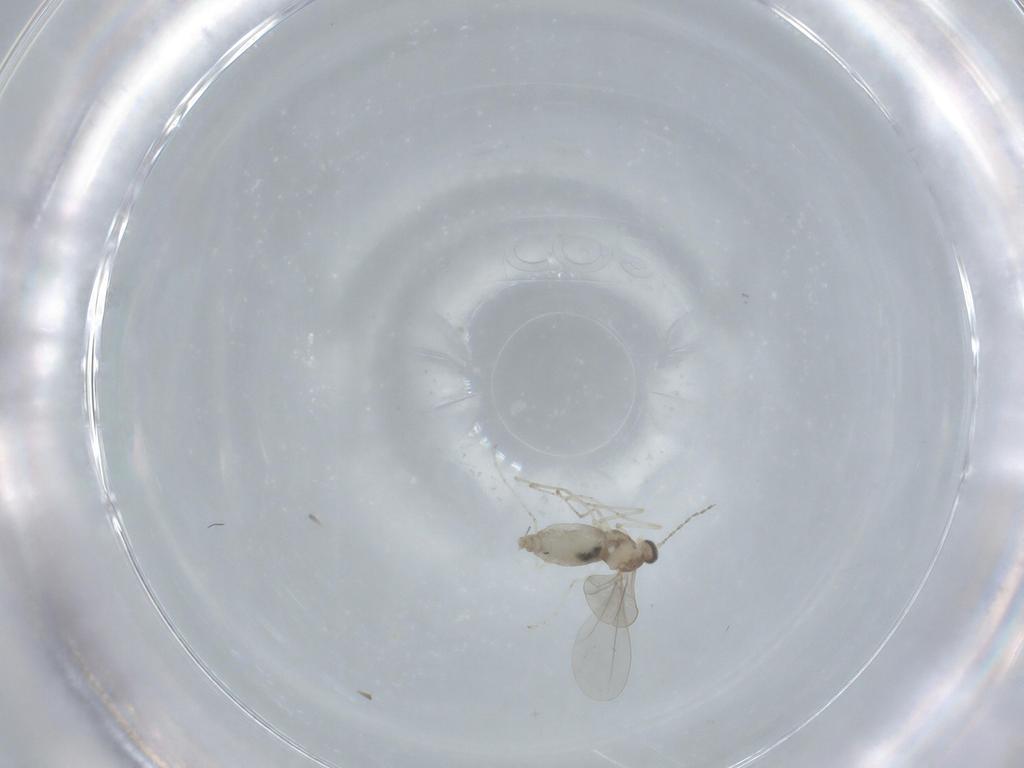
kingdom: Animalia
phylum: Arthropoda
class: Insecta
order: Diptera
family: Cecidomyiidae
